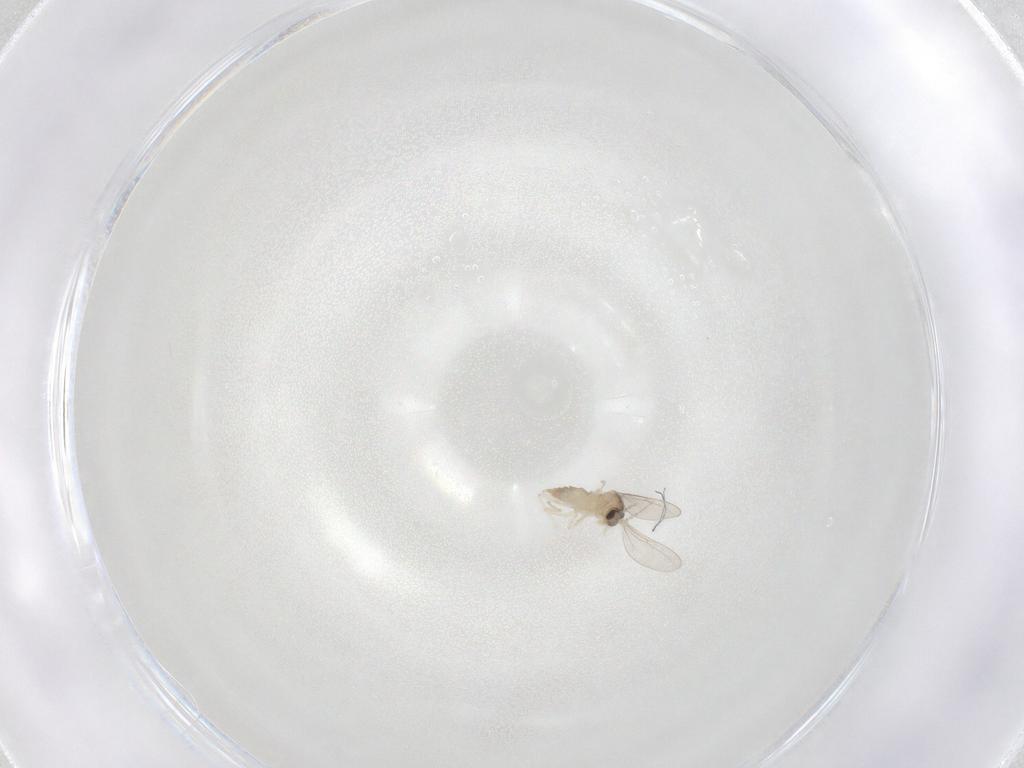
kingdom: Animalia
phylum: Arthropoda
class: Insecta
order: Diptera
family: Cecidomyiidae
